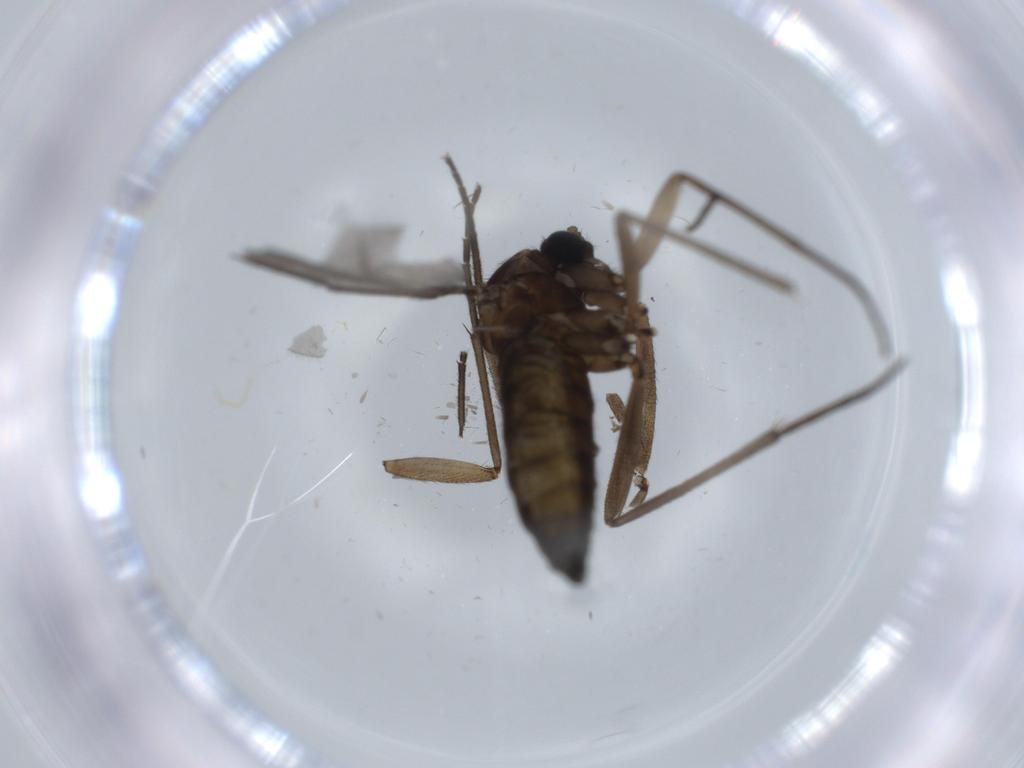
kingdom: Animalia
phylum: Arthropoda
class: Insecta
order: Diptera
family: Sciaridae
